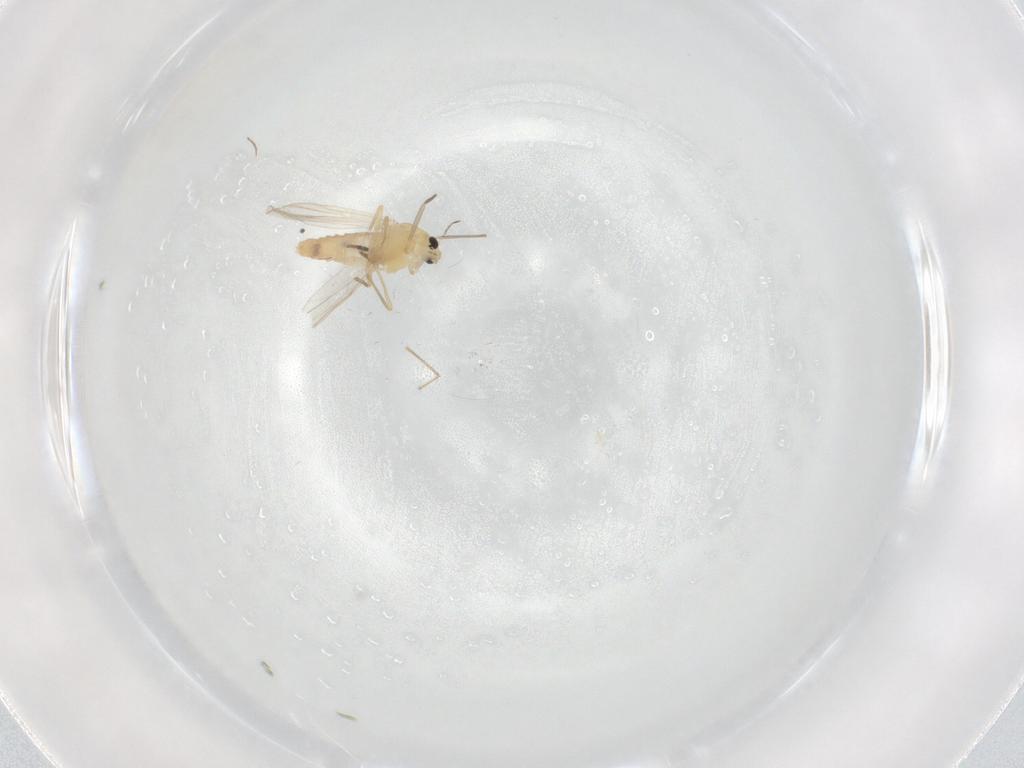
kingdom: Animalia
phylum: Arthropoda
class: Insecta
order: Diptera
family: Chironomidae
